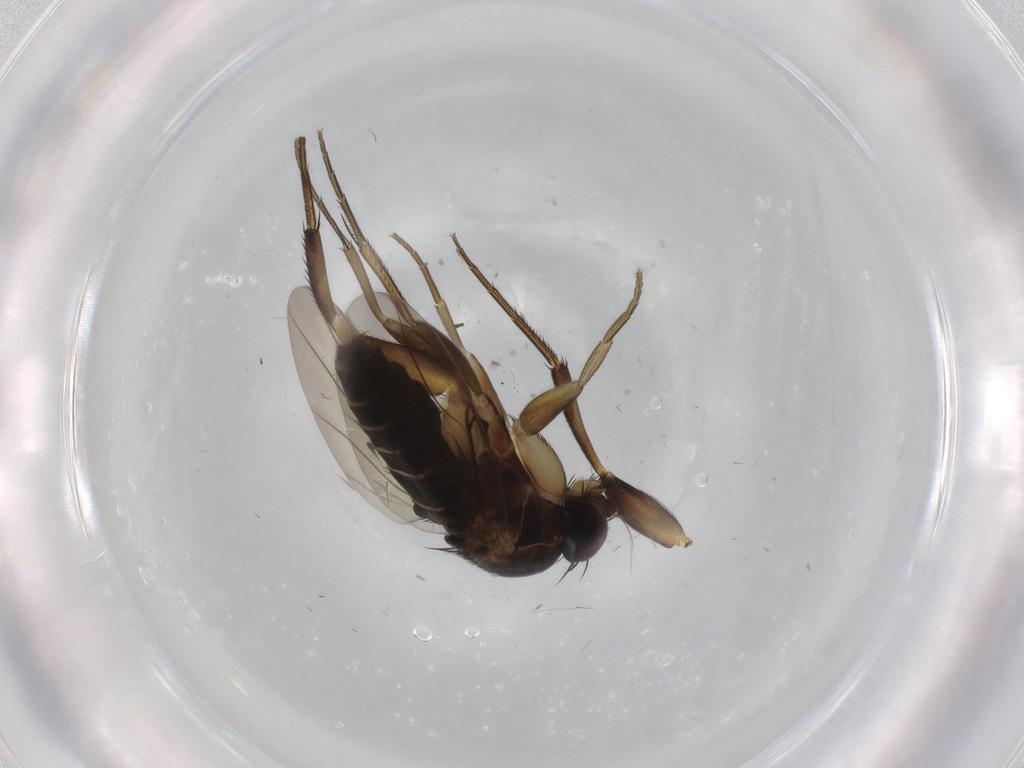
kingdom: Animalia
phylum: Arthropoda
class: Insecta
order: Diptera
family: Phoridae
